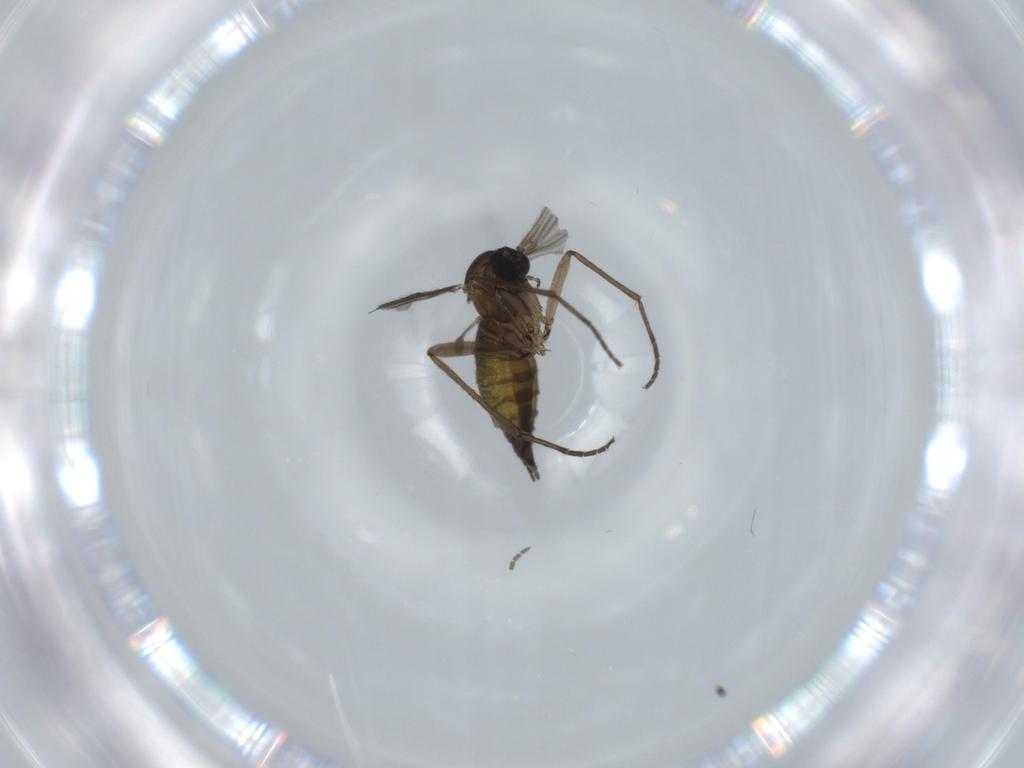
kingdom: Animalia
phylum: Arthropoda
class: Insecta
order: Diptera
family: Sciaridae
